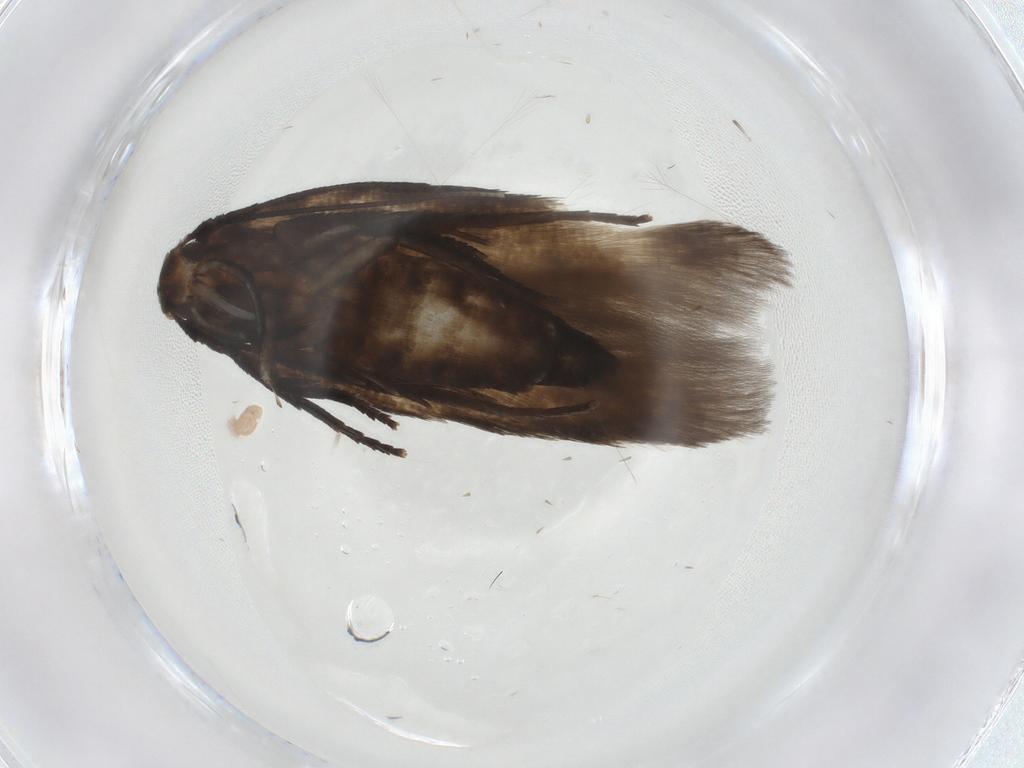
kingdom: Animalia
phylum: Arthropoda
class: Insecta
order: Lepidoptera
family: Cosmopterigidae
